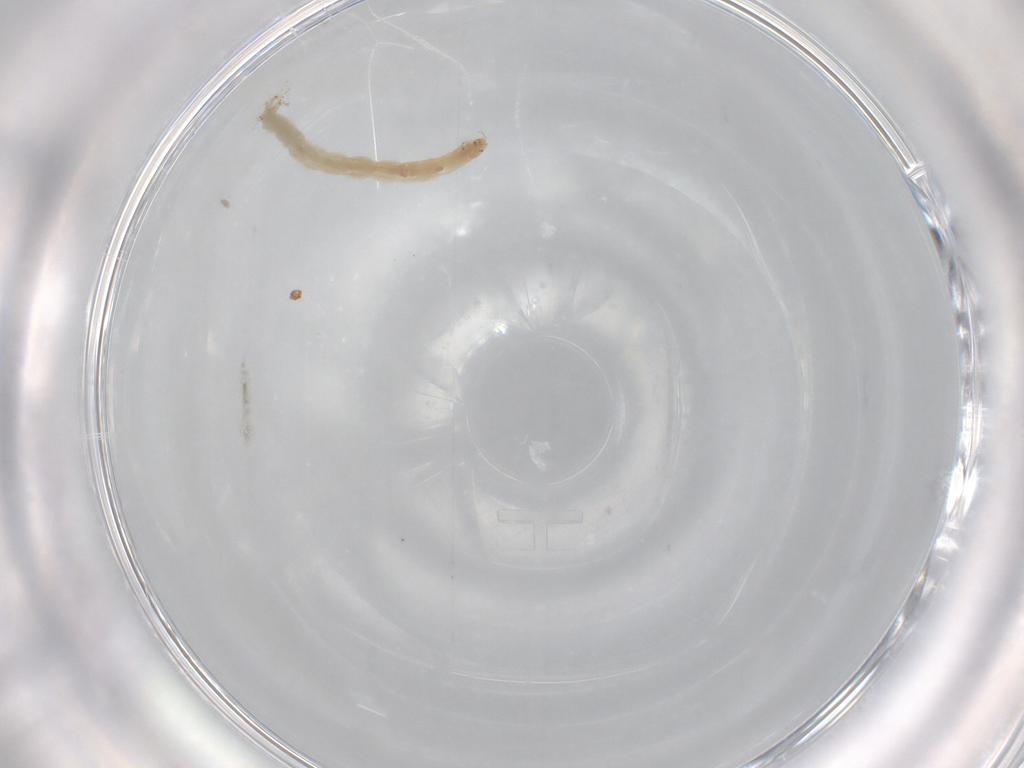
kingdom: Animalia
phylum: Arthropoda
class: Insecta
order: Diptera
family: Chironomidae
